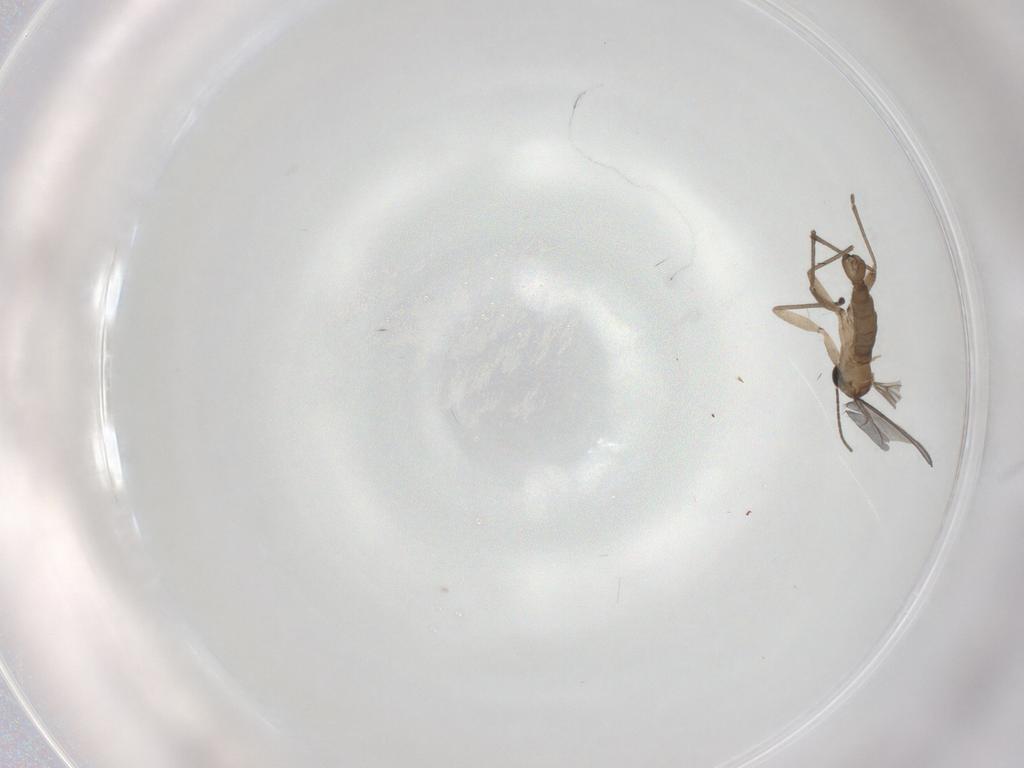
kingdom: Animalia
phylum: Arthropoda
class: Insecta
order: Diptera
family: Sciaridae
